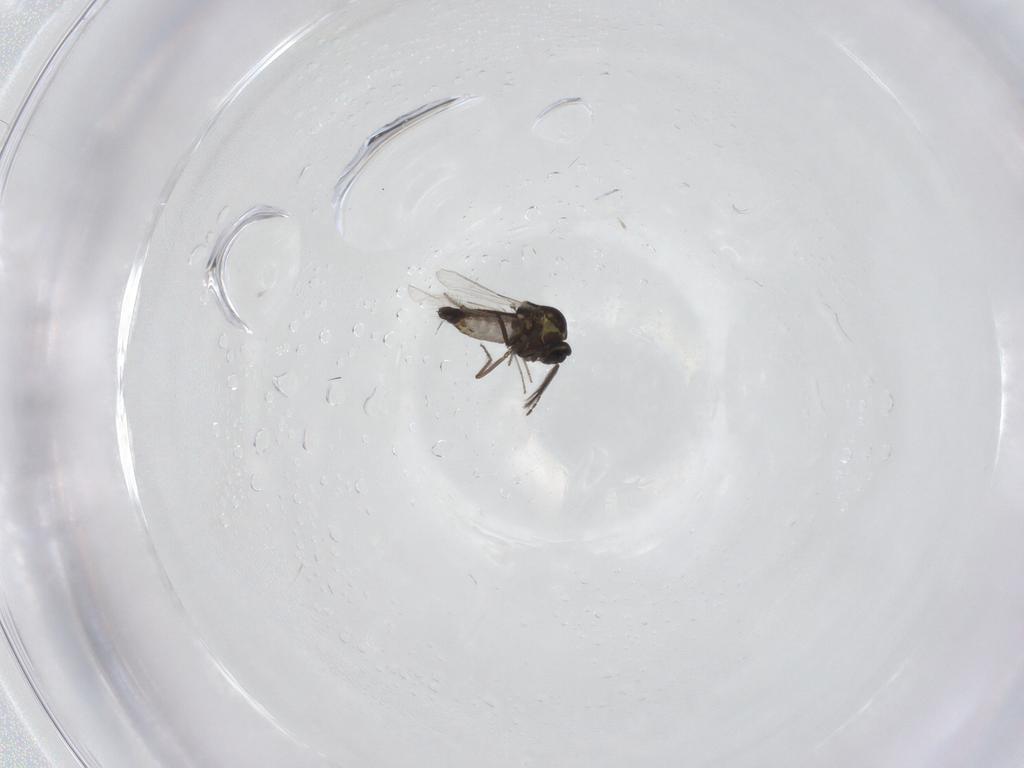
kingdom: Animalia
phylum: Arthropoda
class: Insecta
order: Diptera
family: Ceratopogonidae
